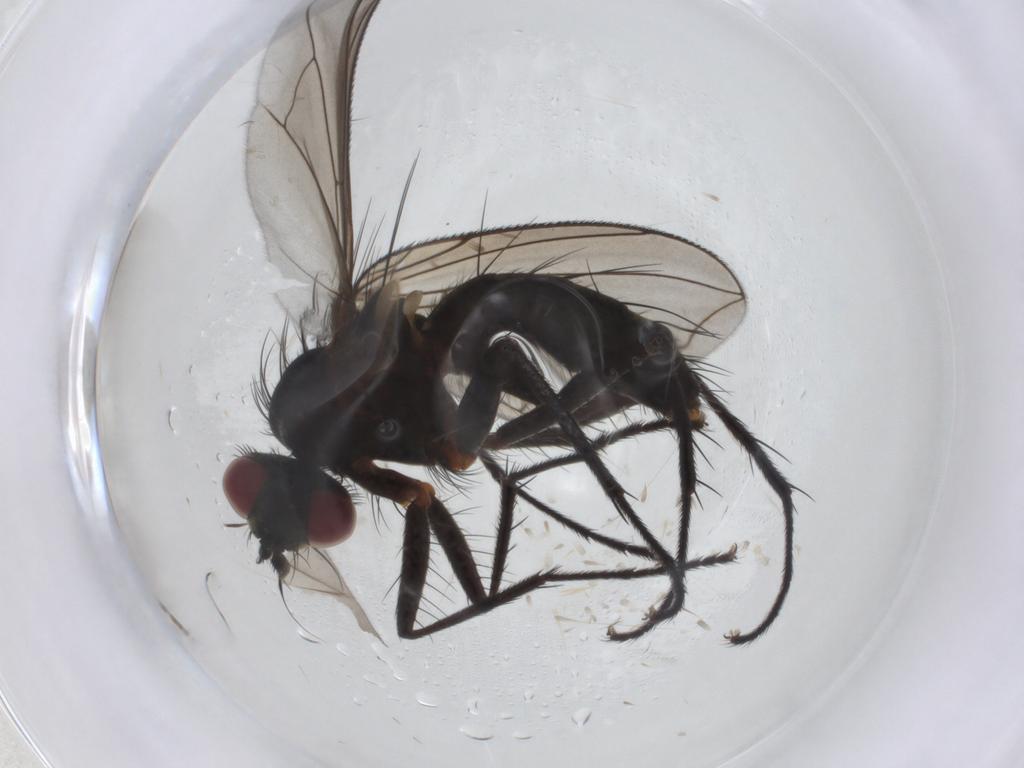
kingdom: Animalia
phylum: Arthropoda
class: Insecta
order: Diptera
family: Tachinidae
